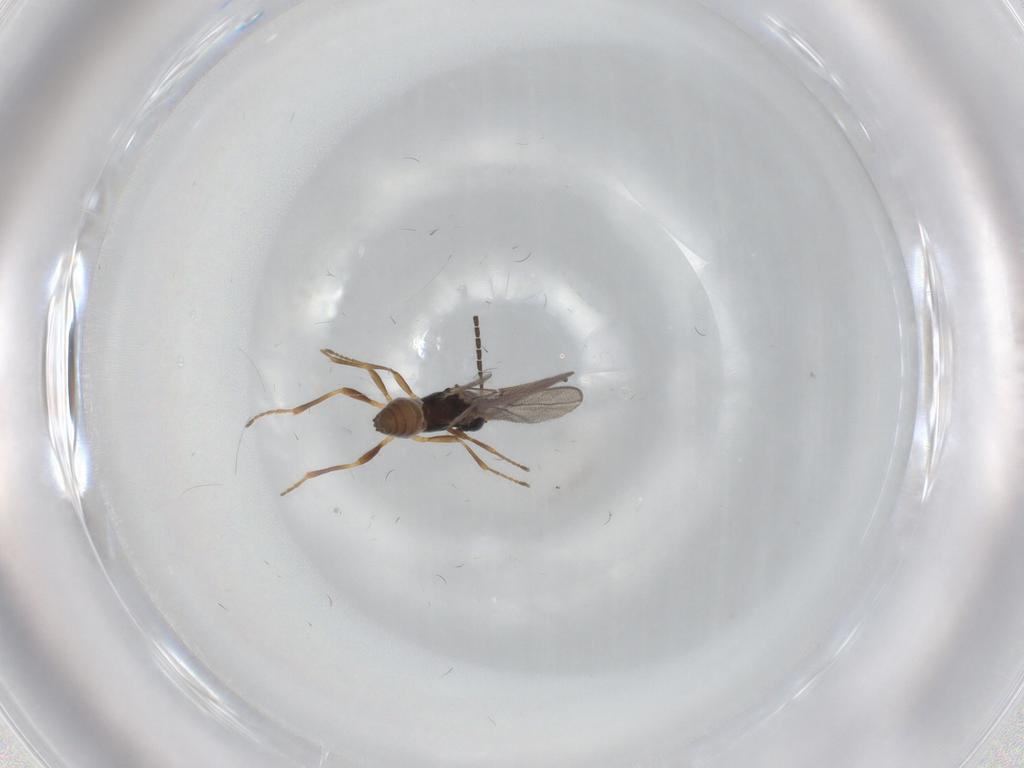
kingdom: Animalia
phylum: Arthropoda
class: Insecta
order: Hymenoptera
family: Braconidae
